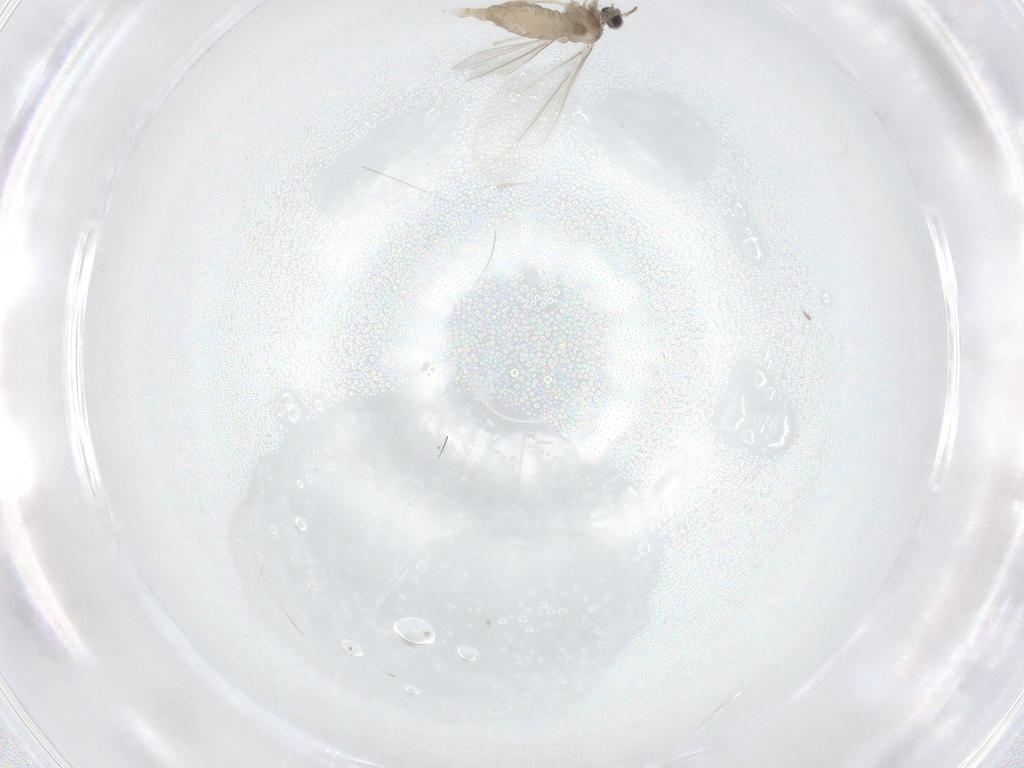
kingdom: Animalia
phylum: Arthropoda
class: Insecta
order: Diptera
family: Cecidomyiidae
